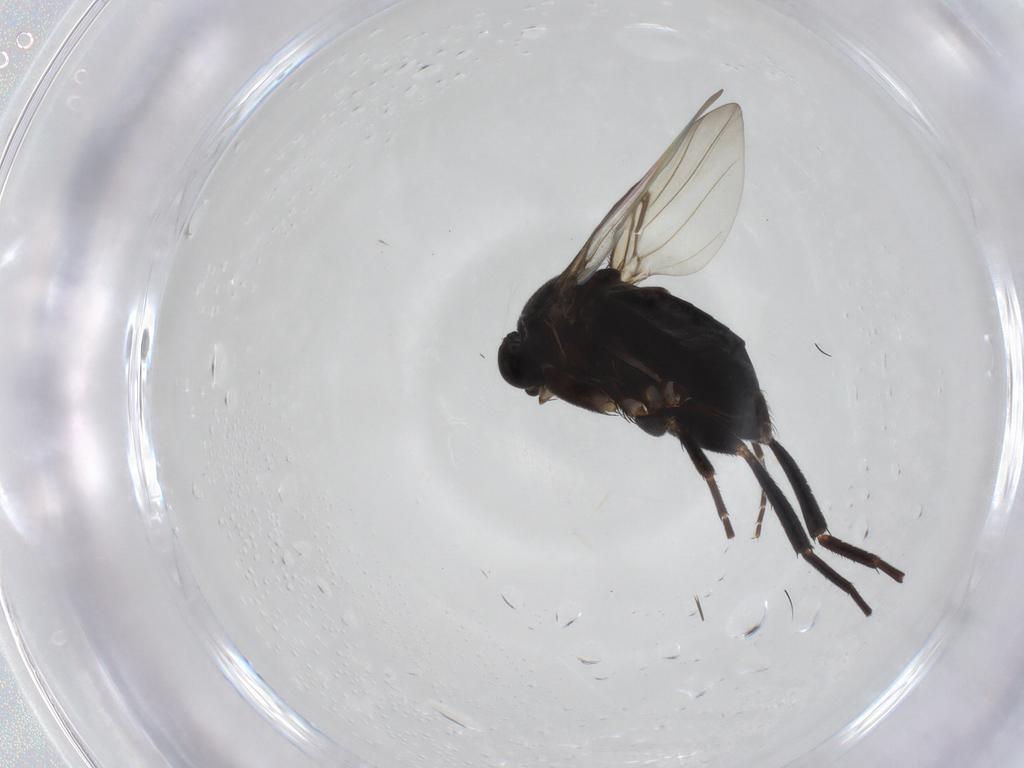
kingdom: Animalia
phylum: Arthropoda
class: Insecta
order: Diptera
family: Phoridae
